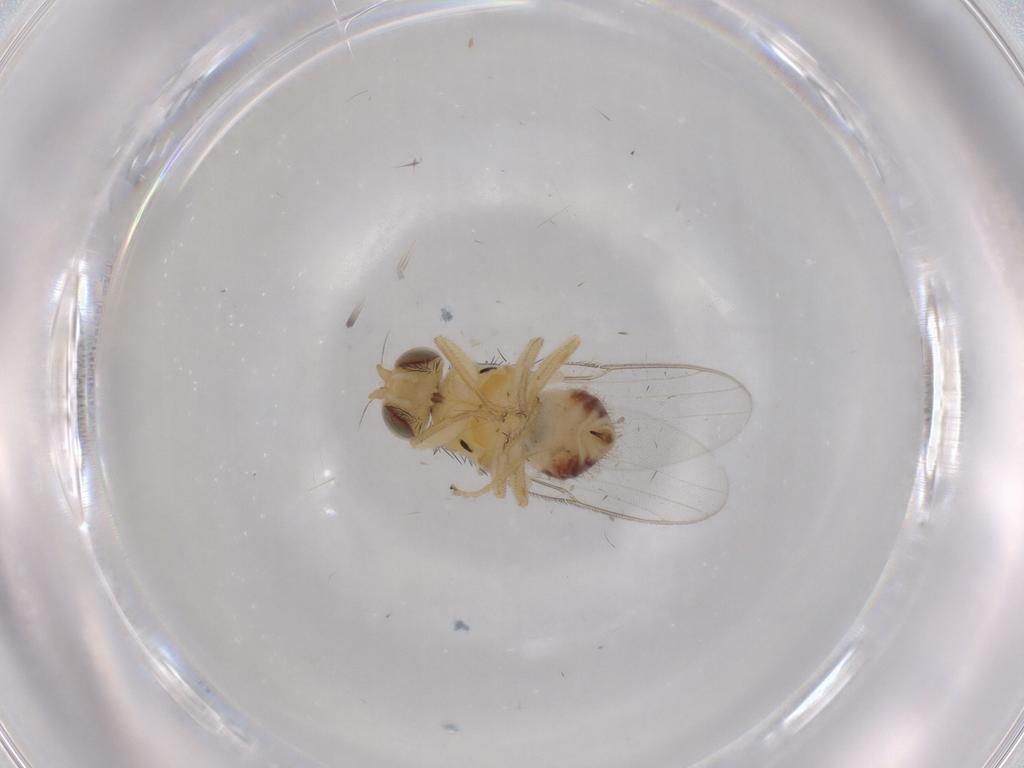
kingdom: Animalia
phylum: Arthropoda
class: Insecta
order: Diptera
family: Chloropidae
